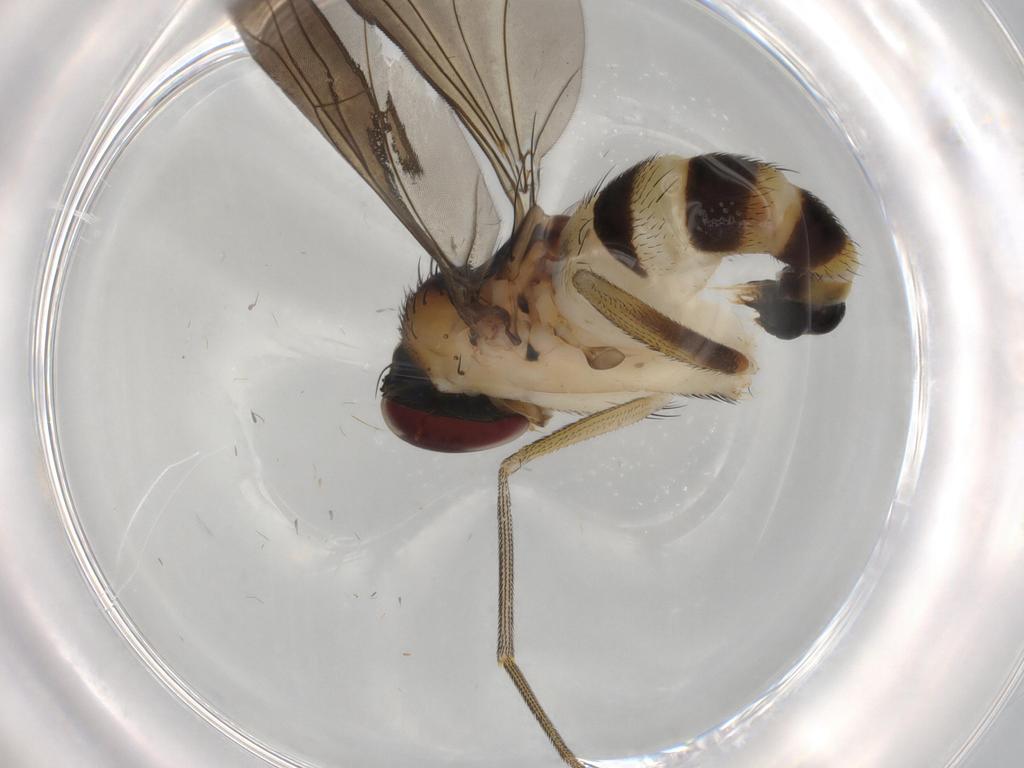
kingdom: Animalia
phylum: Arthropoda
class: Insecta
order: Diptera
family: Dolichopodidae
